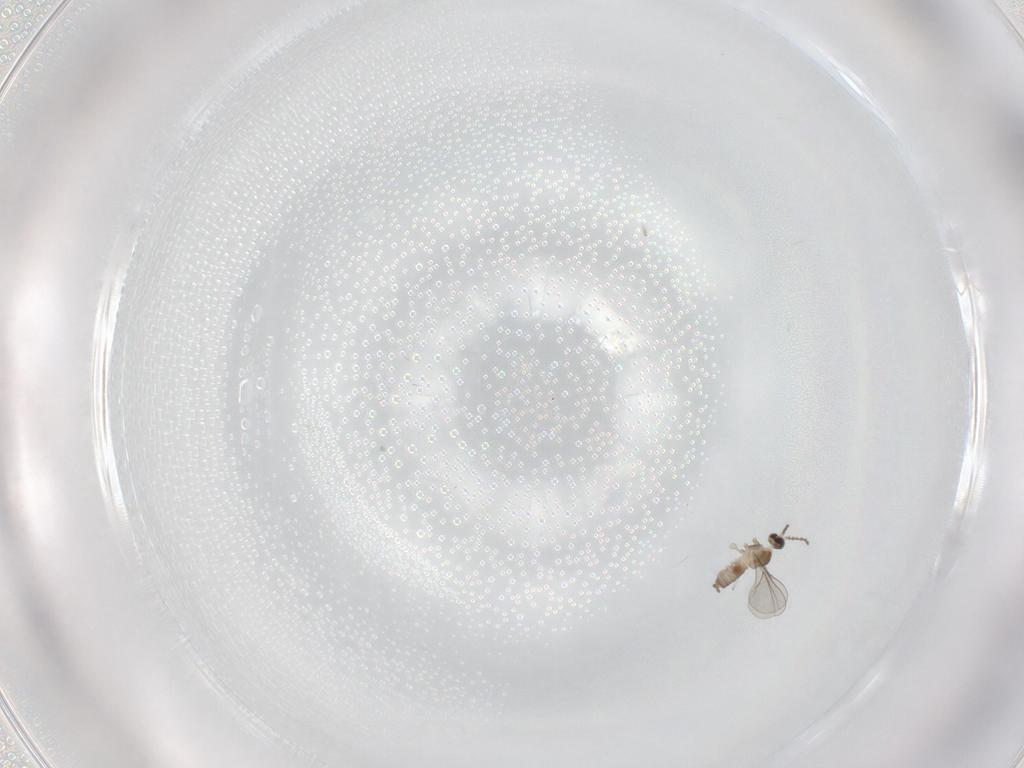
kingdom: Animalia
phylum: Arthropoda
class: Insecta
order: Diptera
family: Cecidomyiidae
